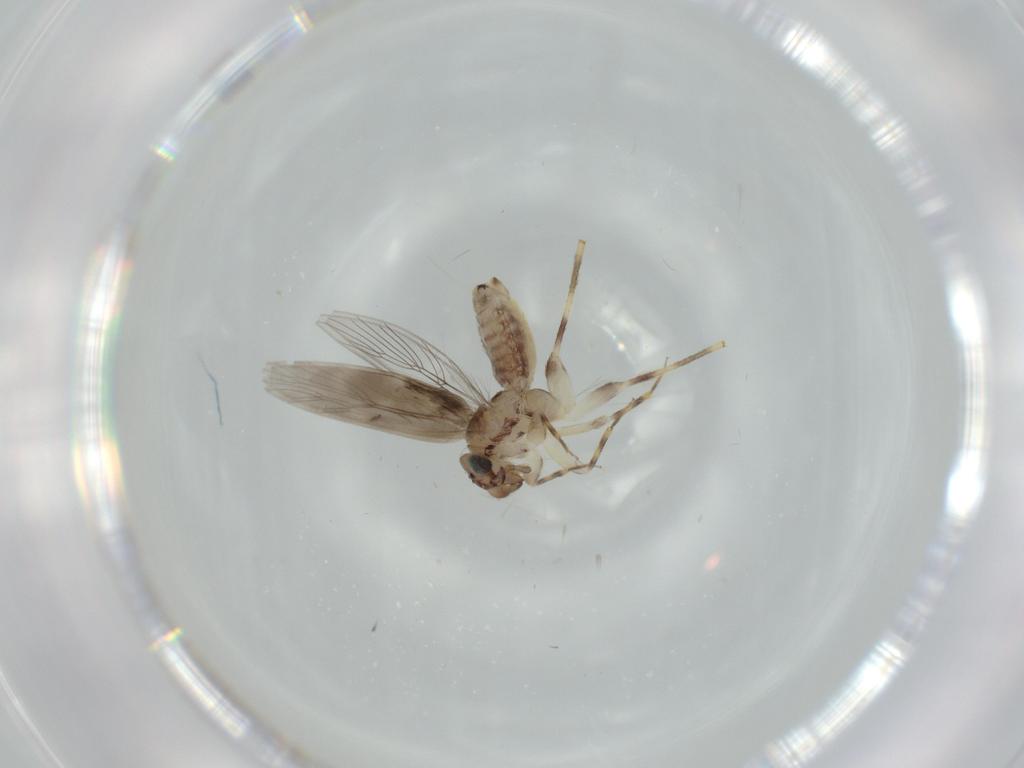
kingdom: Animalia
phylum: Arthropoda
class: Insecta
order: Psocodea
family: Lepidopsocidae
